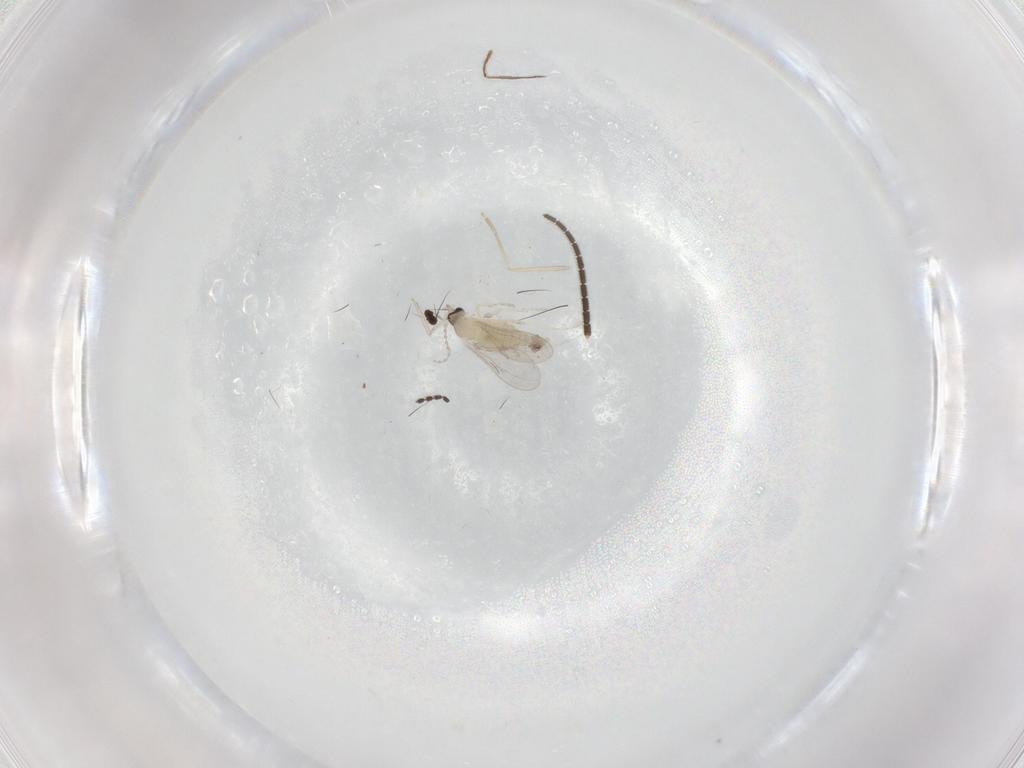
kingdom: Animalia
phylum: Arthropoda
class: Insecta
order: Diptera
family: Cecidomyiidae
